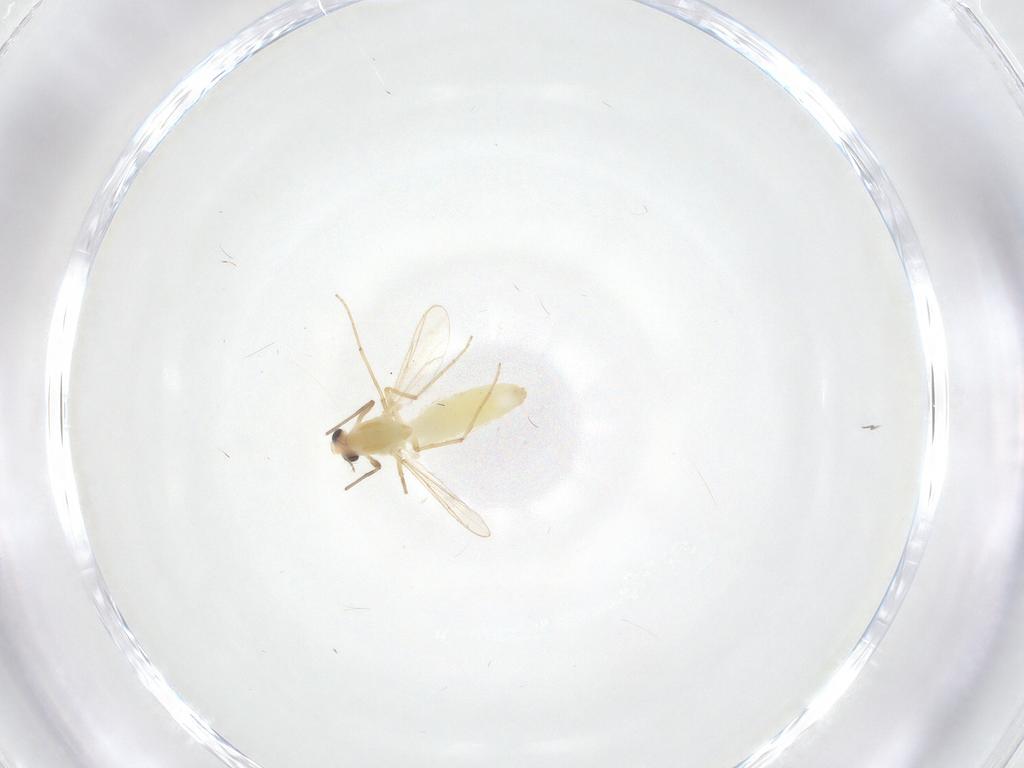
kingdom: Animalia
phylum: Arthropoda
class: Insecta
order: Diptera
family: Chironomidae
